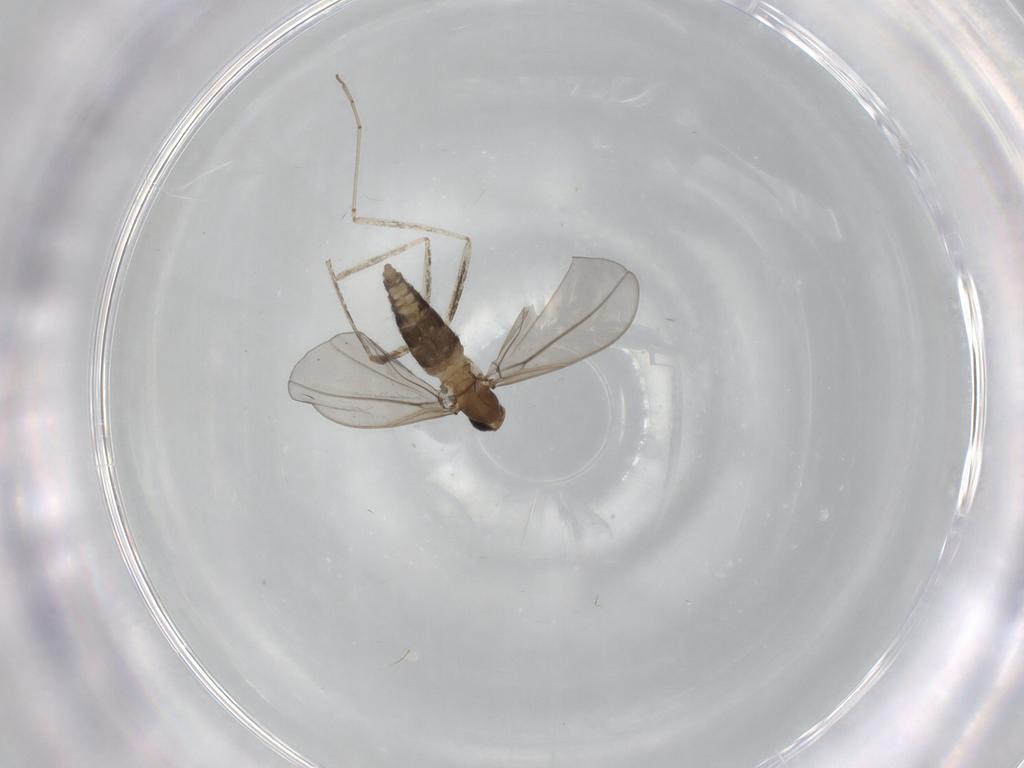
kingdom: Animalia
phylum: Arthropoda
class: Insecta
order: Diptera
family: Cecidomyiidae
